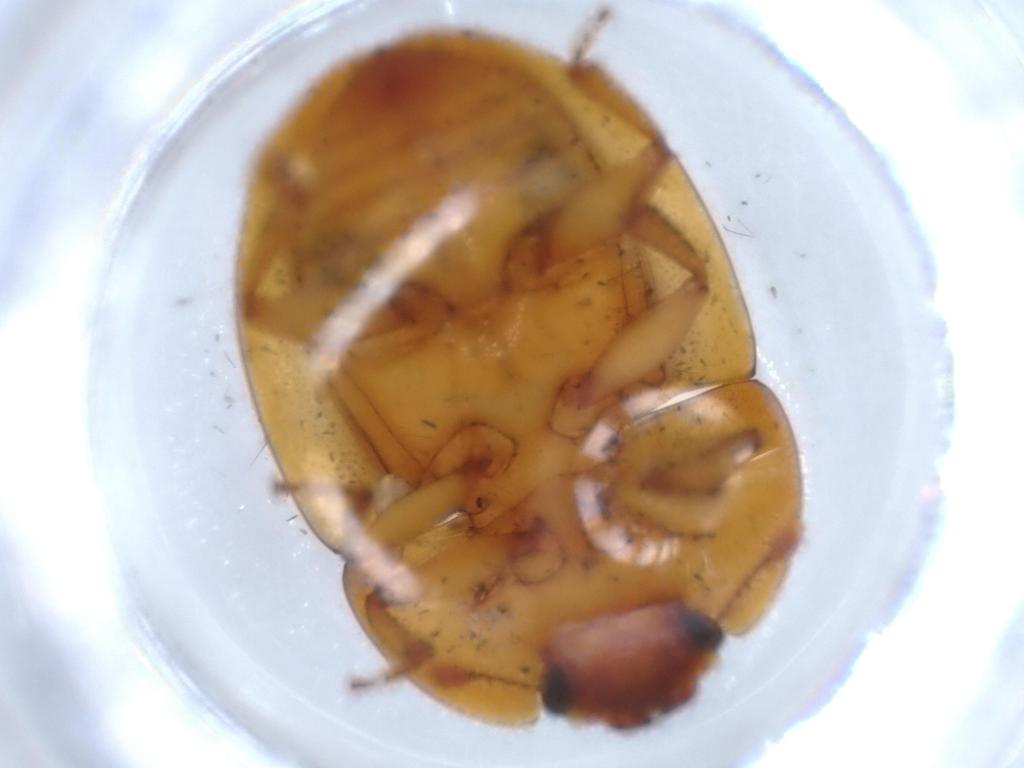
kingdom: Animalia
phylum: Arthropoda
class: Insecta
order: Coleoptera
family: Nitidulidae
